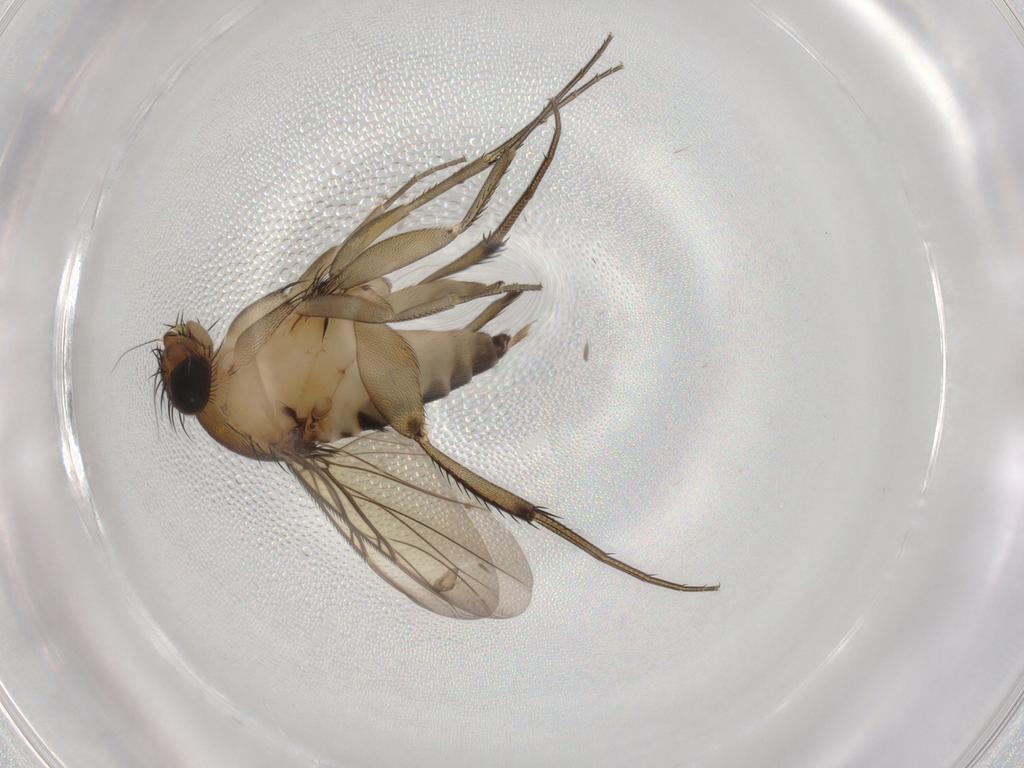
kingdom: Animalia
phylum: Arthropoda
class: Insecta
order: Diptera
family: Phoridae
